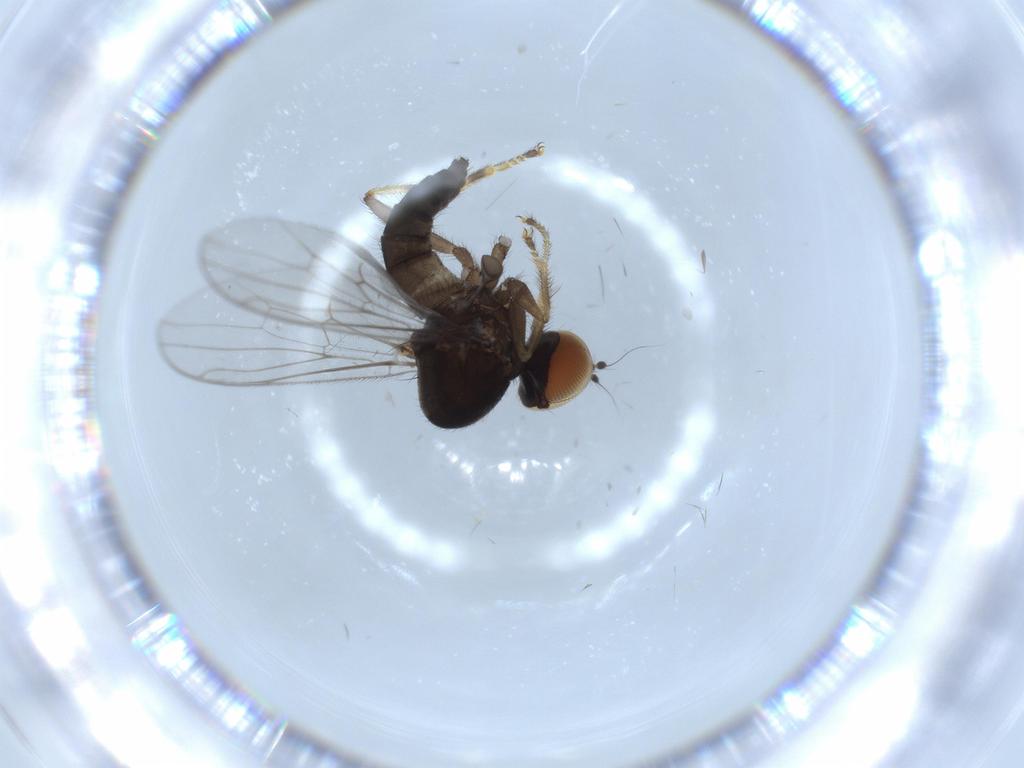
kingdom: Animalia
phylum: Arthropoda
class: Insecta
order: Diptera
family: Hybotidae
